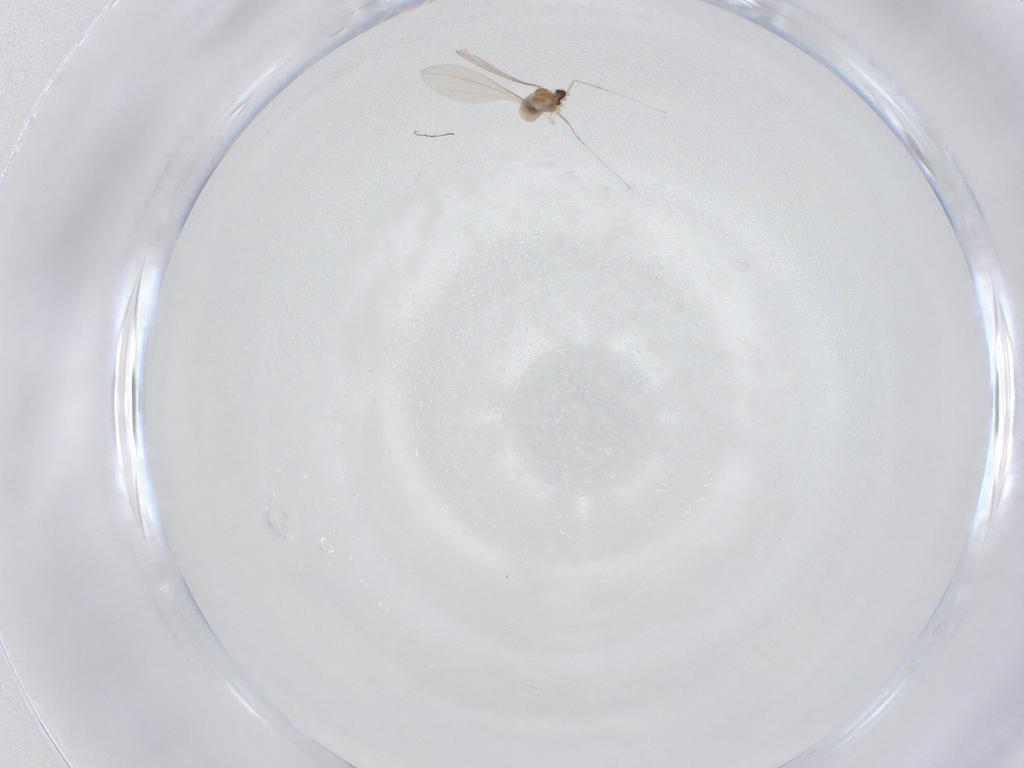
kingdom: Animalia
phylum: Arthropoda
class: Insecta
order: Diptera
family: Cecidomyiidae
